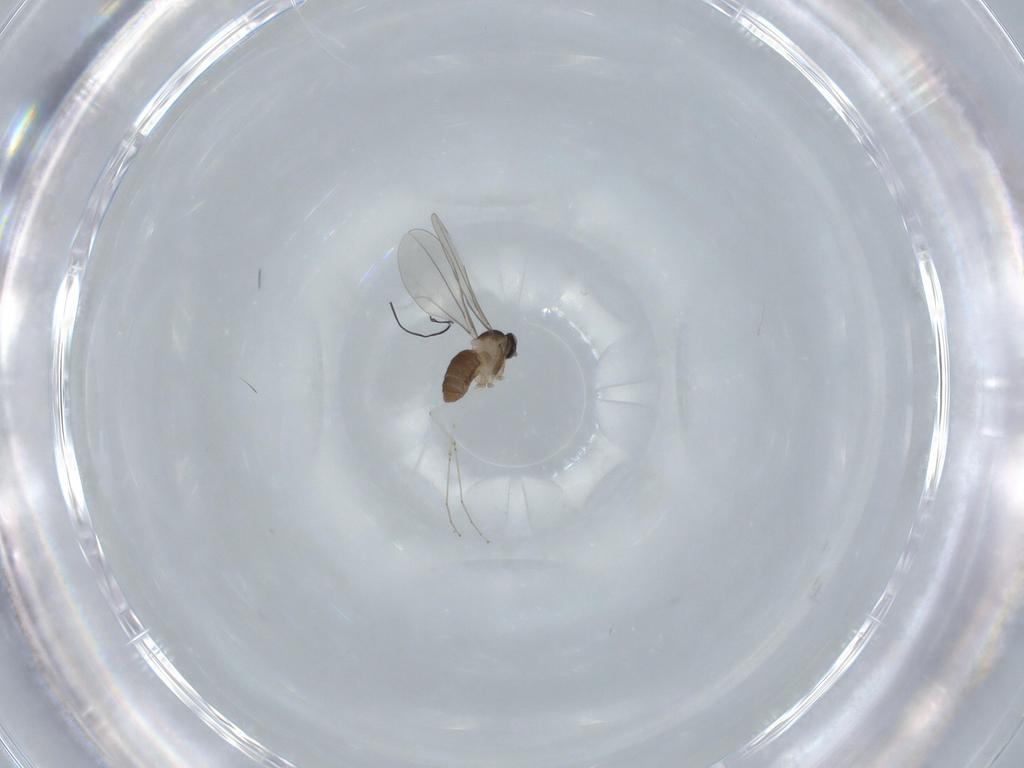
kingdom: Animalia
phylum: Arthropoda
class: Insecta
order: Diptera
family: Cecidomyiidae
